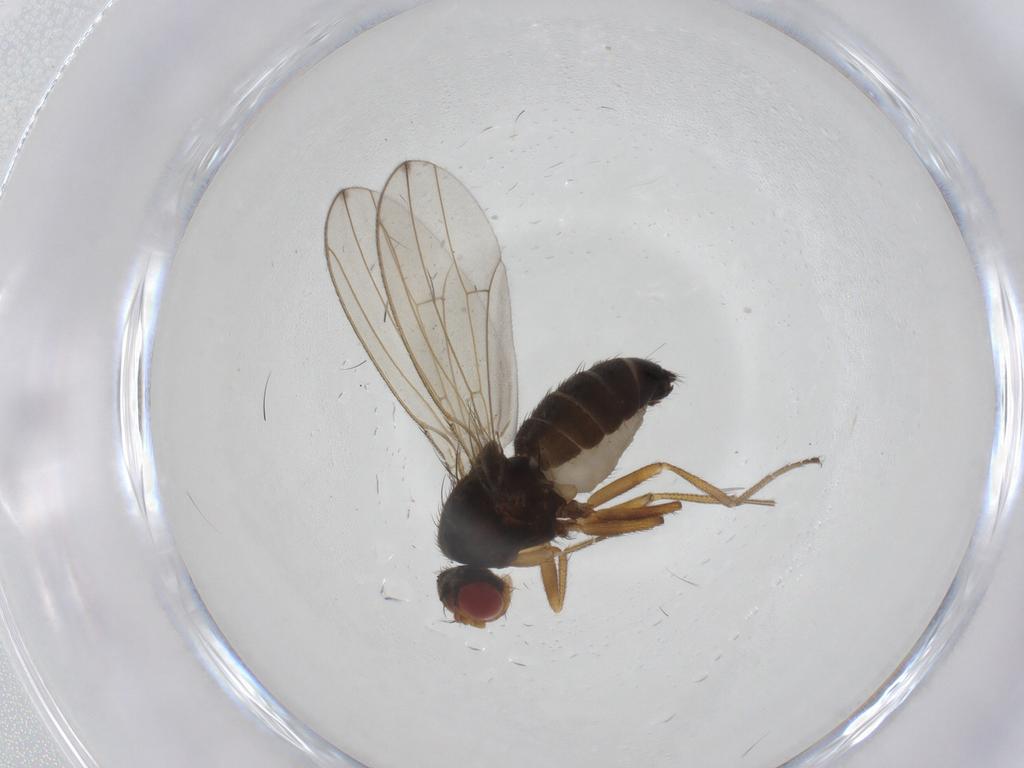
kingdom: Animalia
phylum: Arthropoda
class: Insecta
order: Diptera
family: Drosophilidae
